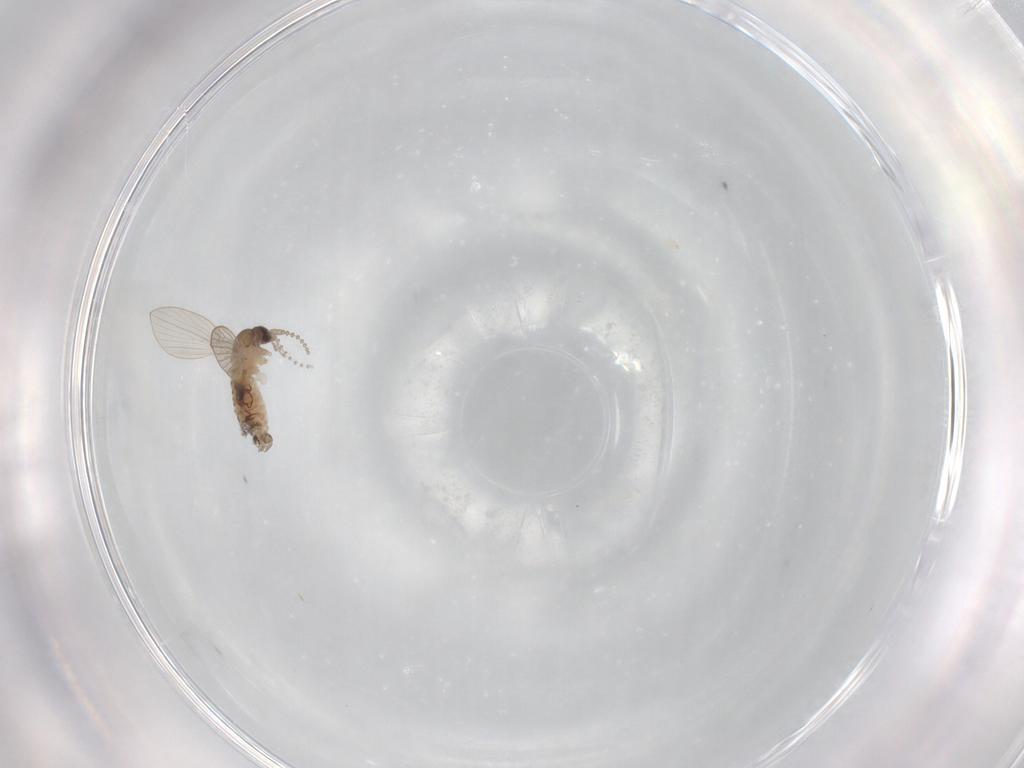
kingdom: Animalia
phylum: Arthropoda
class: Insecta
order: Diptera
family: Psychodidae
